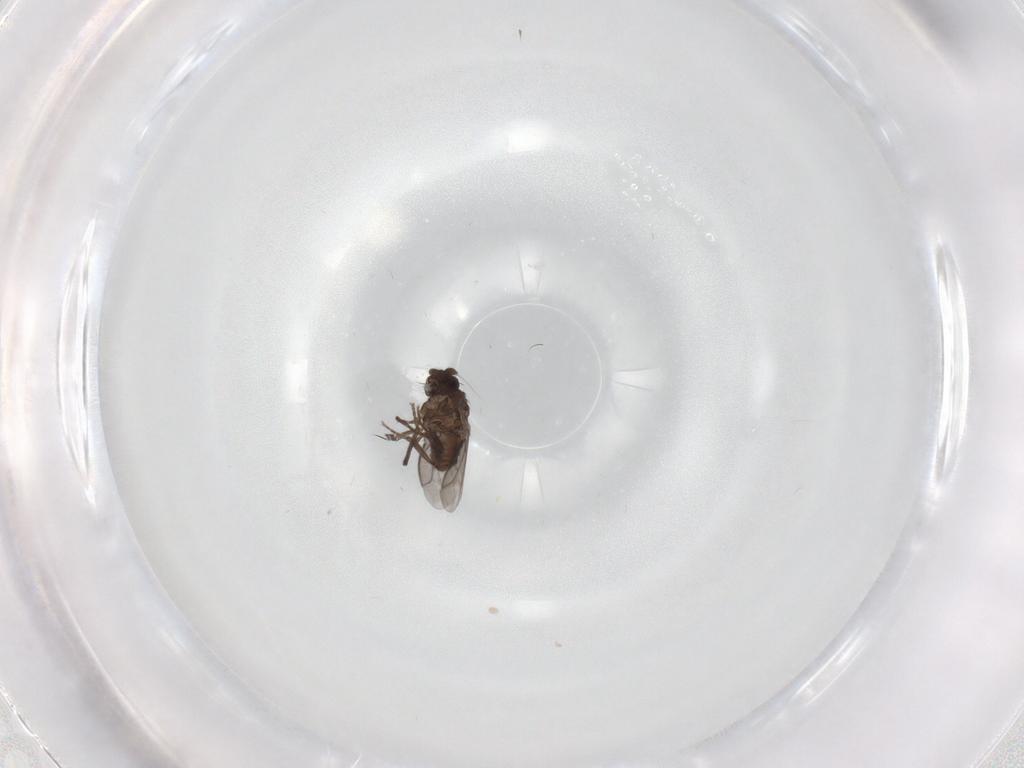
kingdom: Animalia
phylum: Arthropoda
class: Insecta
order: Diptera
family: Sphaeroceridae
